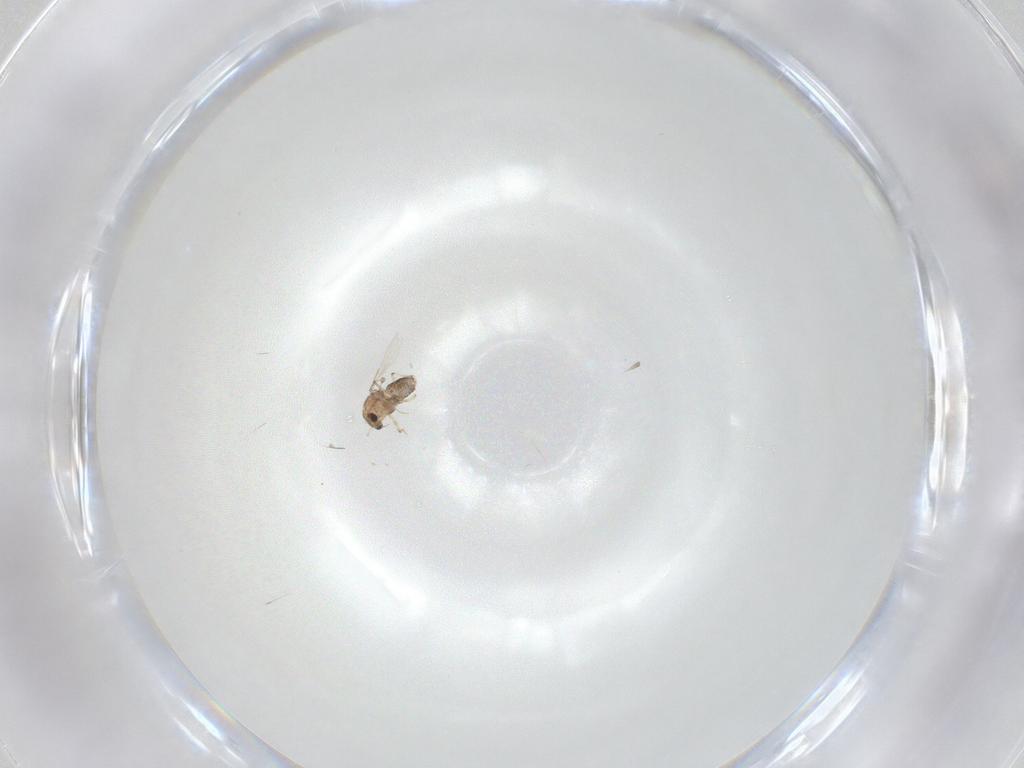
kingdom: Animalia
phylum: Arthropoda
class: Insecta
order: Diptera
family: Chironomidae
